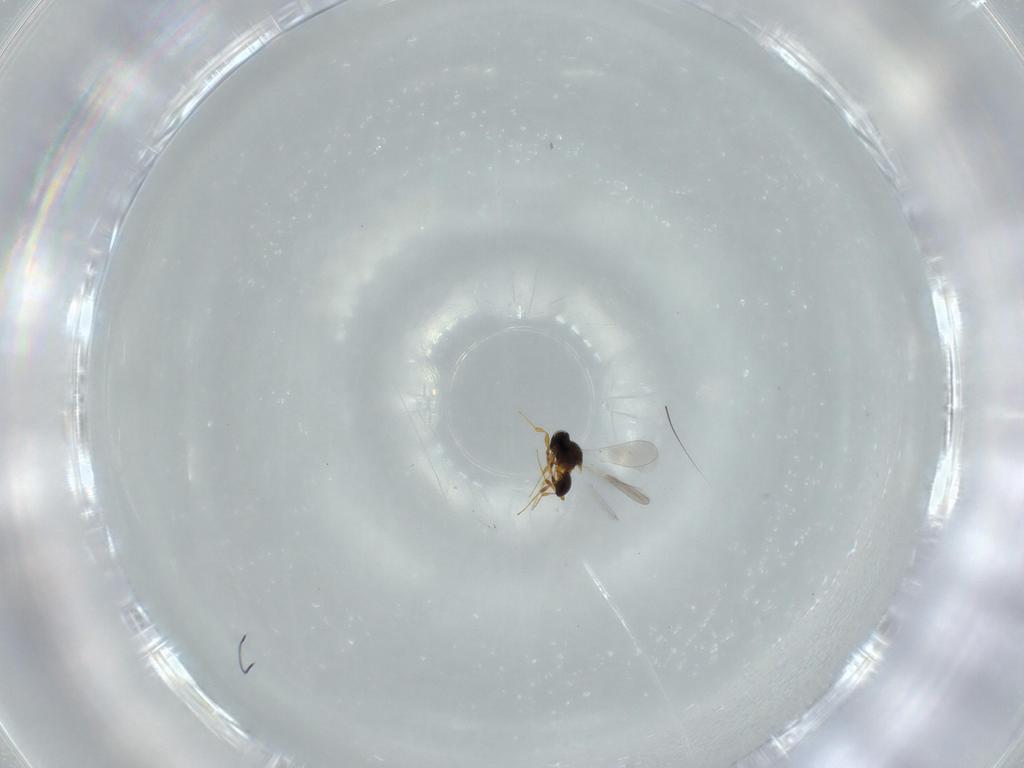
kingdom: Animalia
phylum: Arthropoda
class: Insecta
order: Hymenoptera
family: Platygastridae
